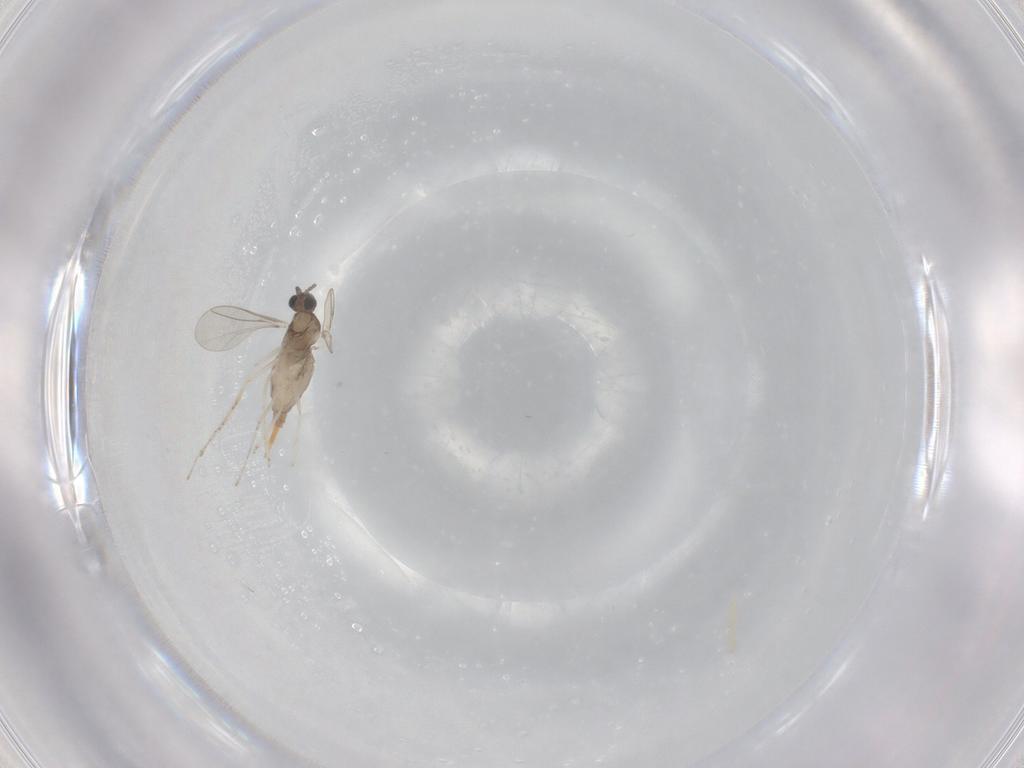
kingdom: Animalia
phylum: Arthropoda
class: Insecta
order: Diptera
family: Cecidomyiidae
